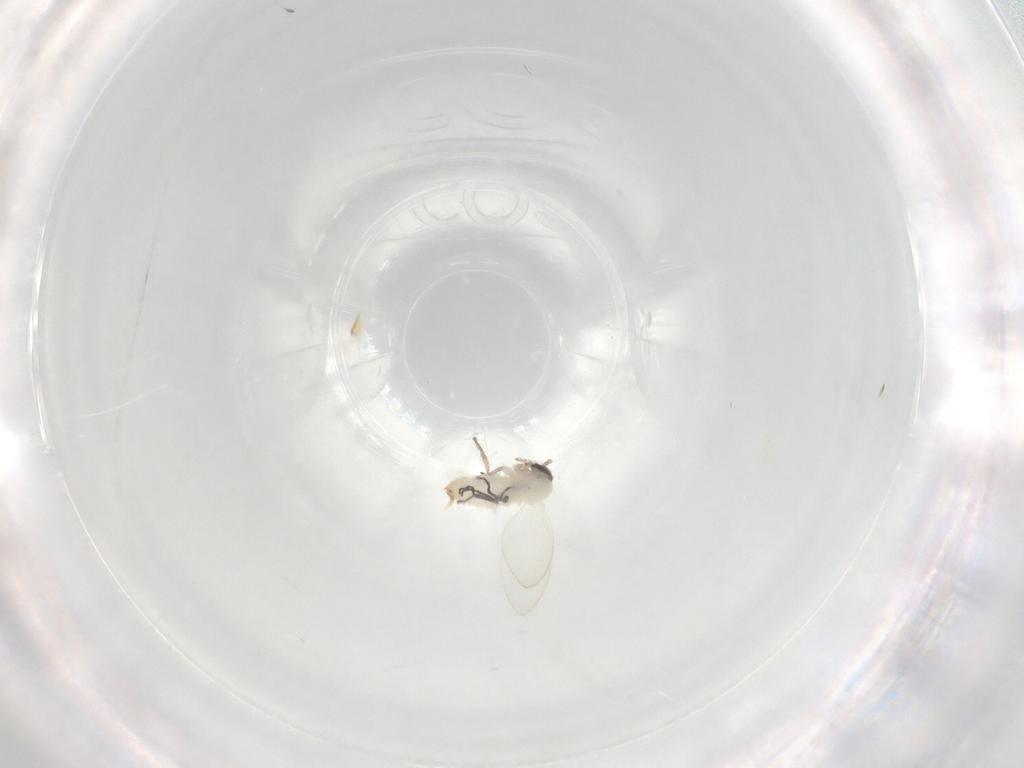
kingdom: Animalia
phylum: Arthropoda
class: Insecta
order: Diptera
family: Psychodidae
